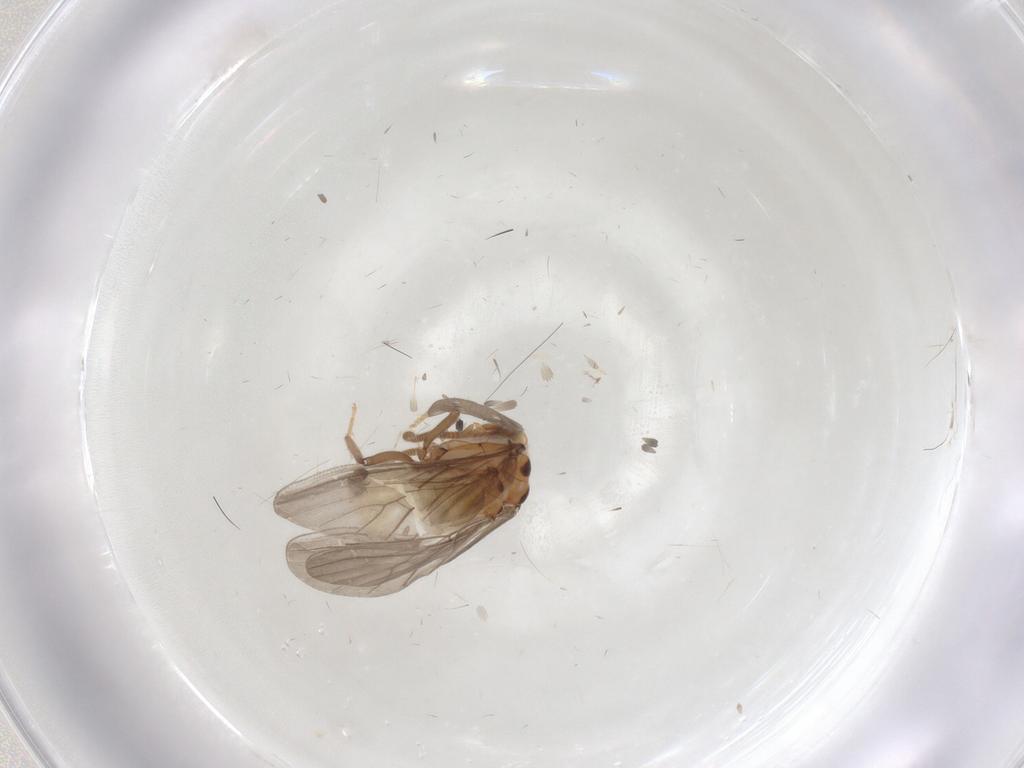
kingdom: Animalia
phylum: Arthropoda
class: Insecta
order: Neuroptera
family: Coniopterygidae
